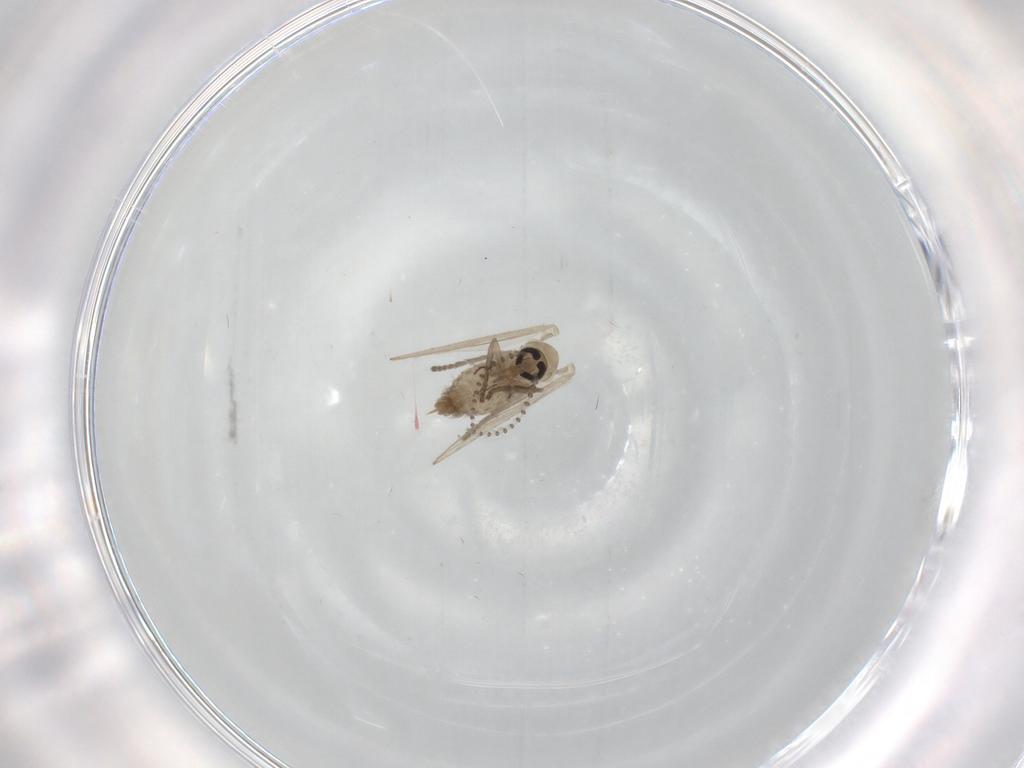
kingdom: Animalia
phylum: Arthropoda
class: Insecta
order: Diptera
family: Psychodidae
